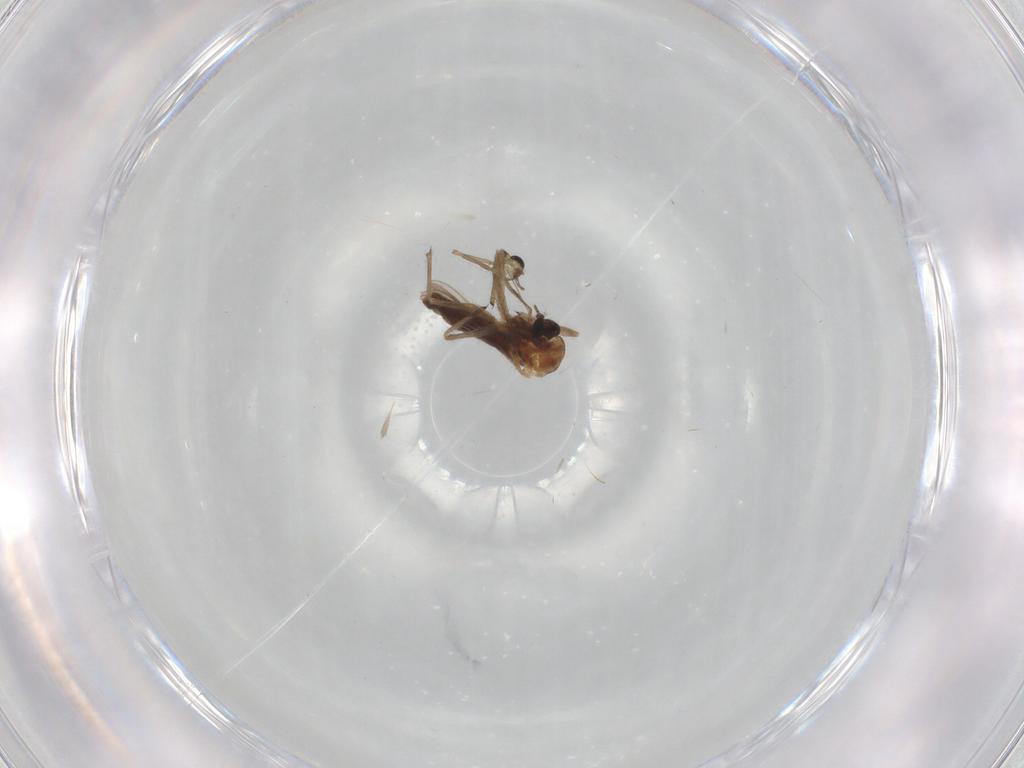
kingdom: Animalia
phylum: Arthropoda
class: Insecta
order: Diptera
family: Chironomidae
